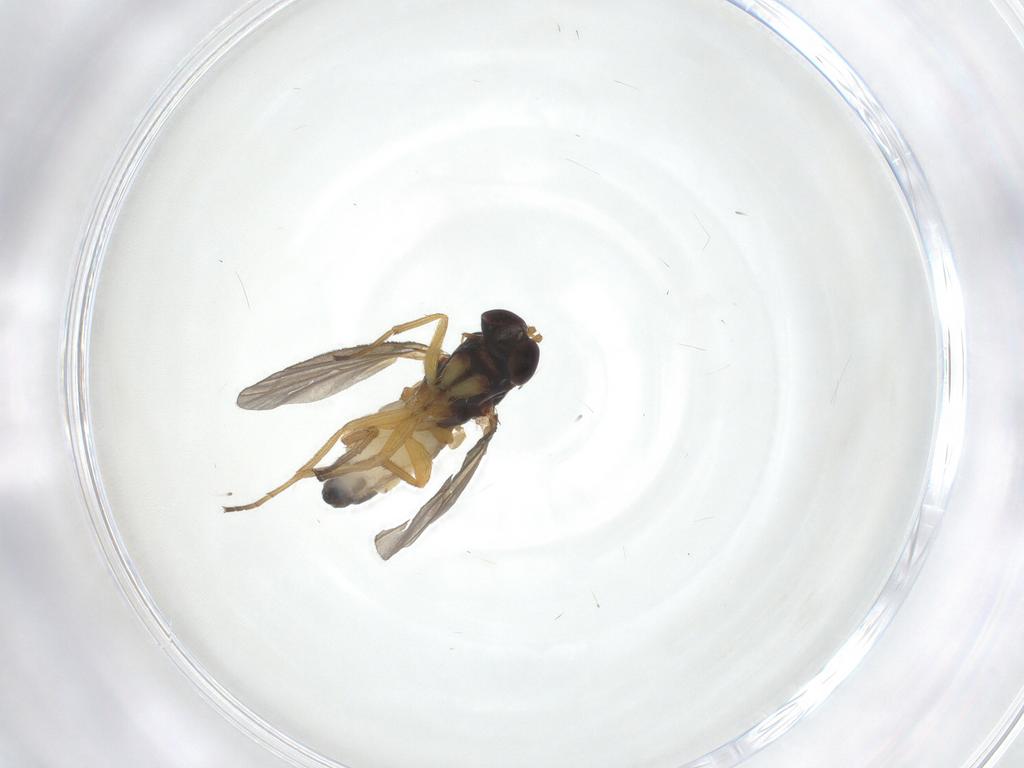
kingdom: Animalia
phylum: Arthropoda
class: Insecta
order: Diptera
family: Dolichopodidae
